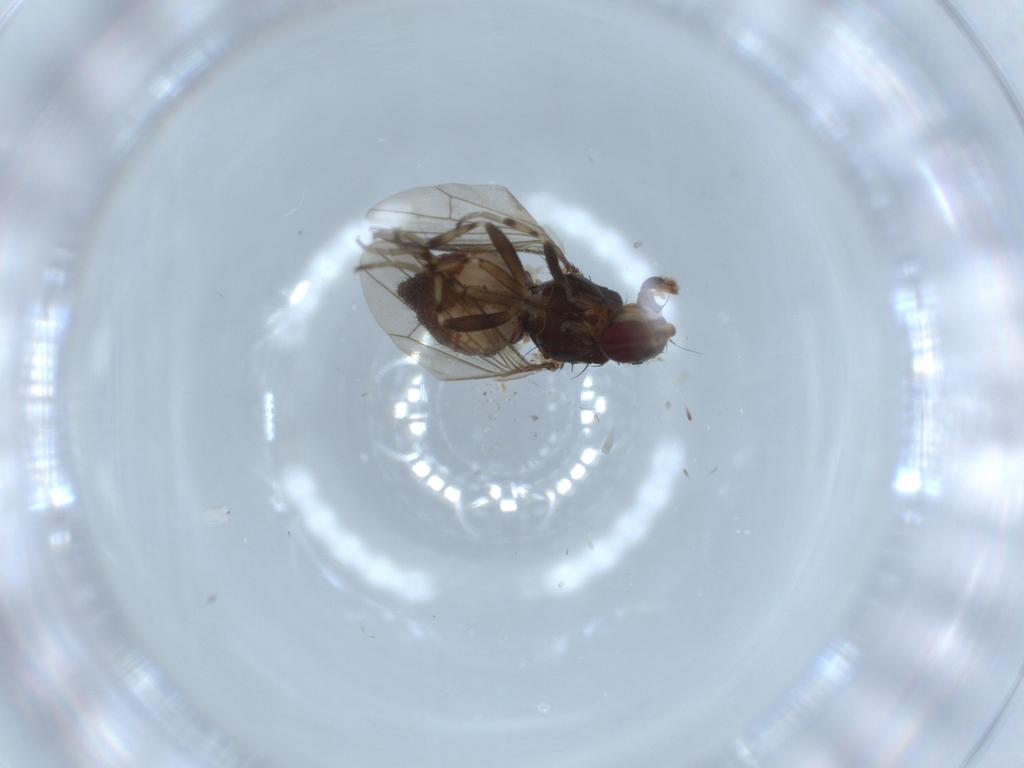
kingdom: Animalia
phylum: Arthropoda
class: Insecta
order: Diptera
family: Heleomyzidae
